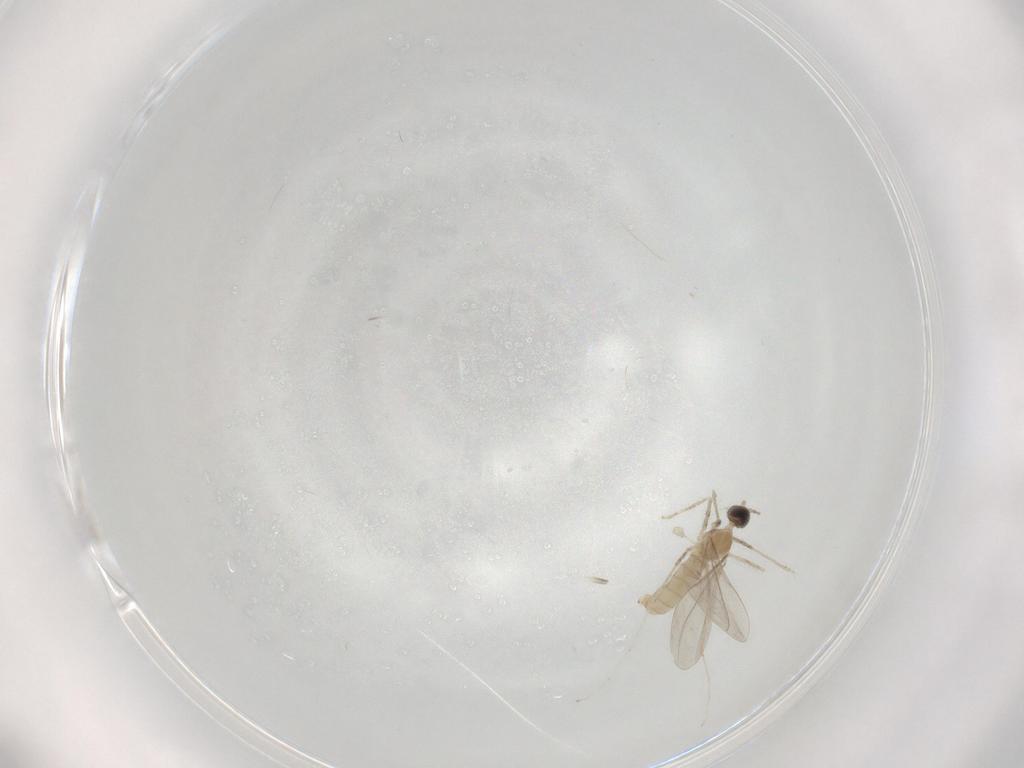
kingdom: Animalia
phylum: Arthropoda
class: Insecta
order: Diptera
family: Cecidomyiidae
